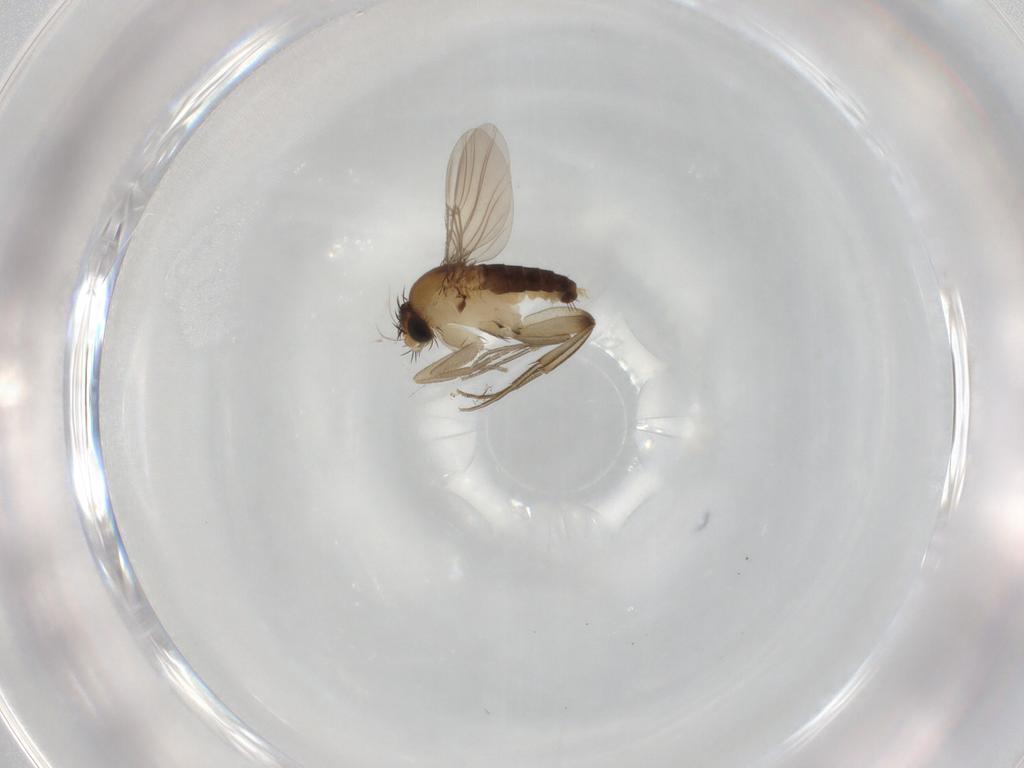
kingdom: Animalia
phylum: Arthropoda
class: Insecta
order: Diptera
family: Phoridae
